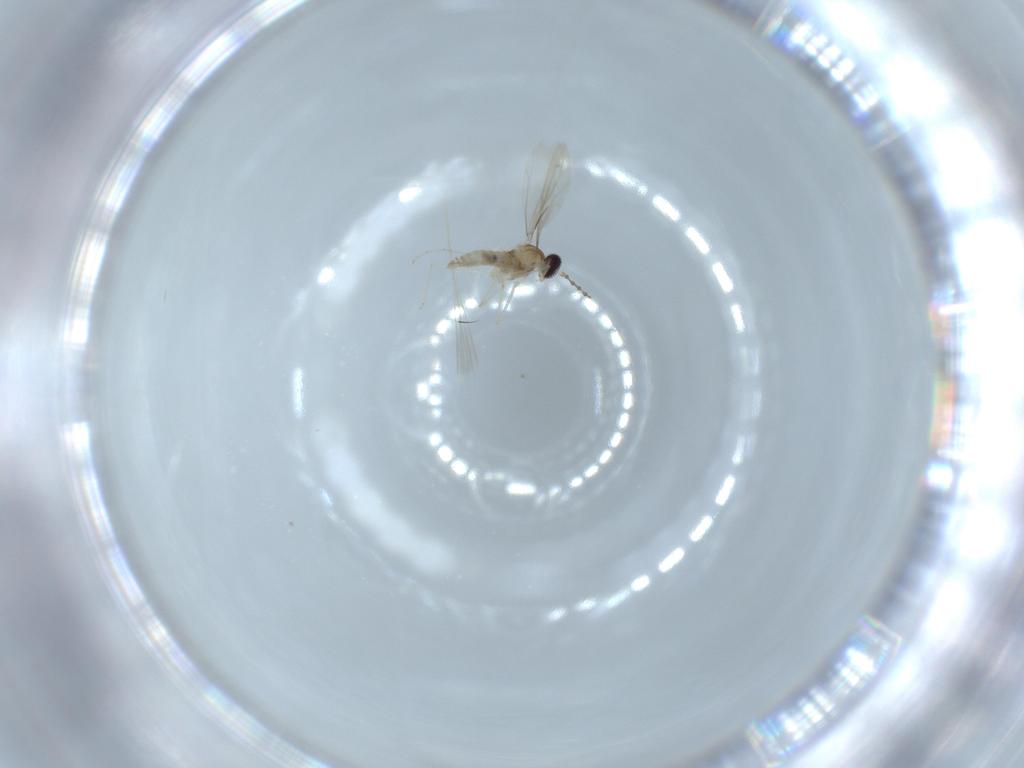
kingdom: Animalia
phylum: Arthropoda
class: Insecta
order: Diptera
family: Cecidomyiidae
